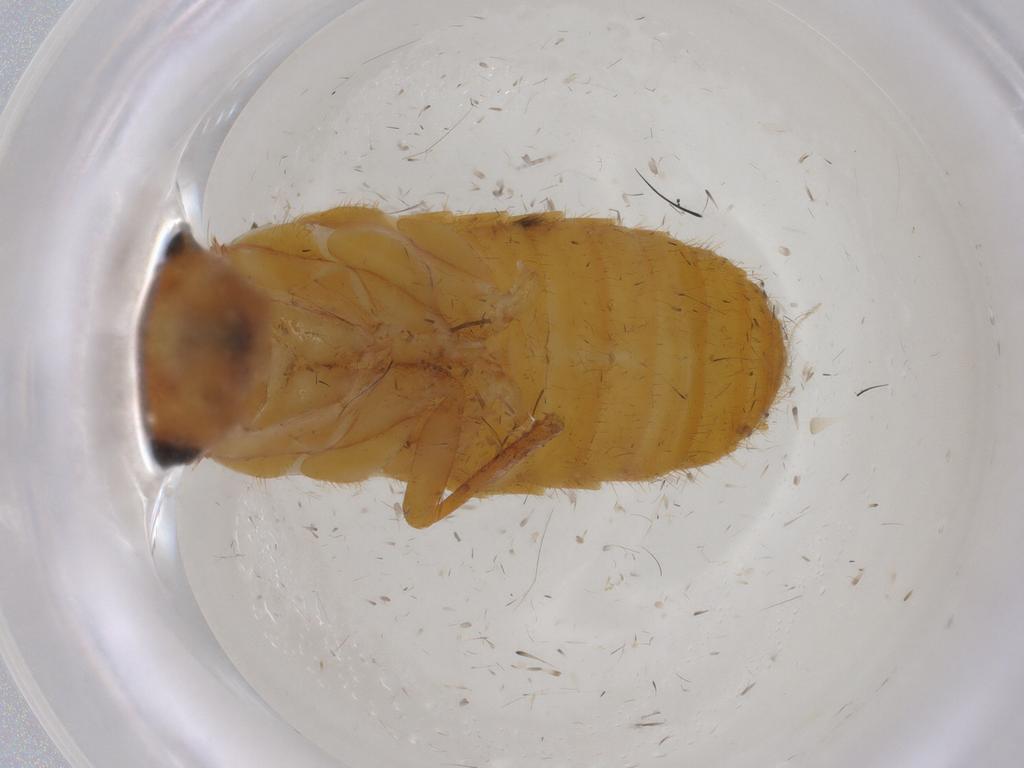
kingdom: Animalia
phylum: Arthropoda
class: Insecta
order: Blattodea
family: Rhinotermitidae
